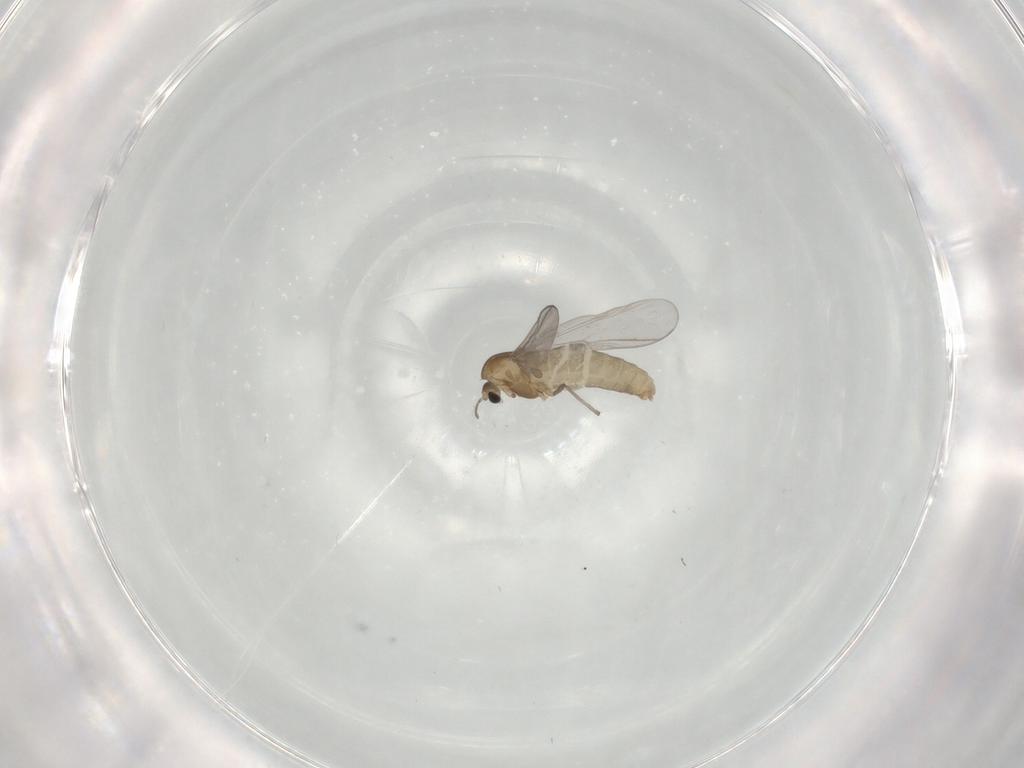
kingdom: Animalia
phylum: Arthropoda
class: Insecta
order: Diptera
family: Chironomidae
